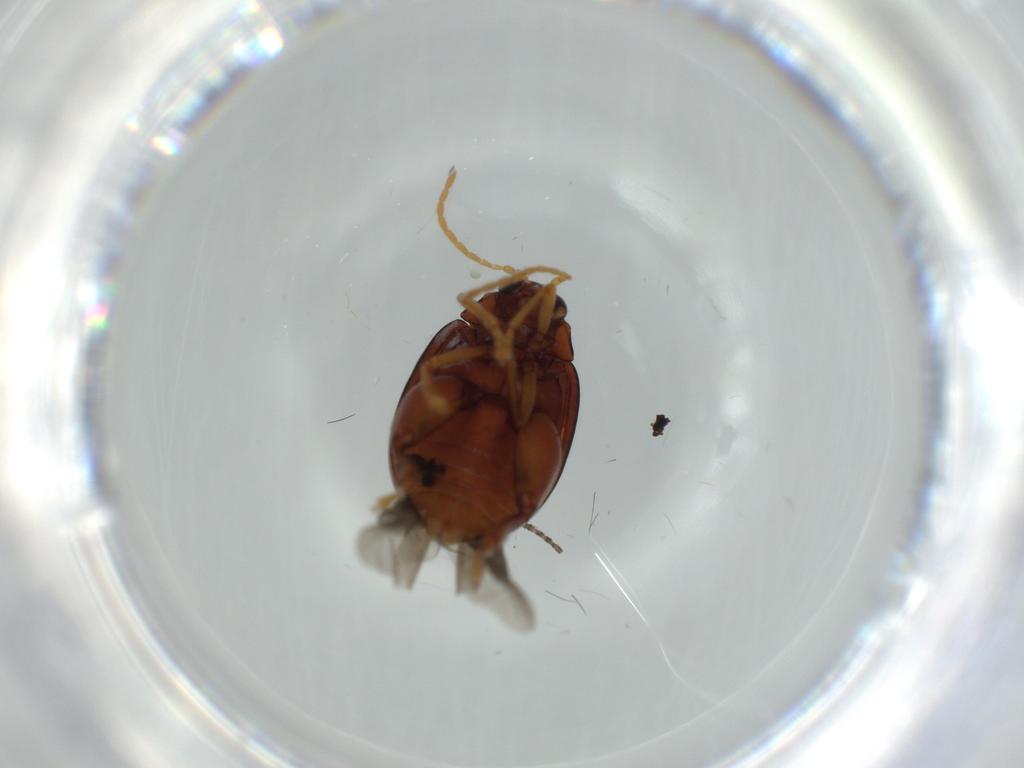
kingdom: Animalia
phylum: Arthropoda
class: Insecta
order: Coleoptera
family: Chrysomelidae
